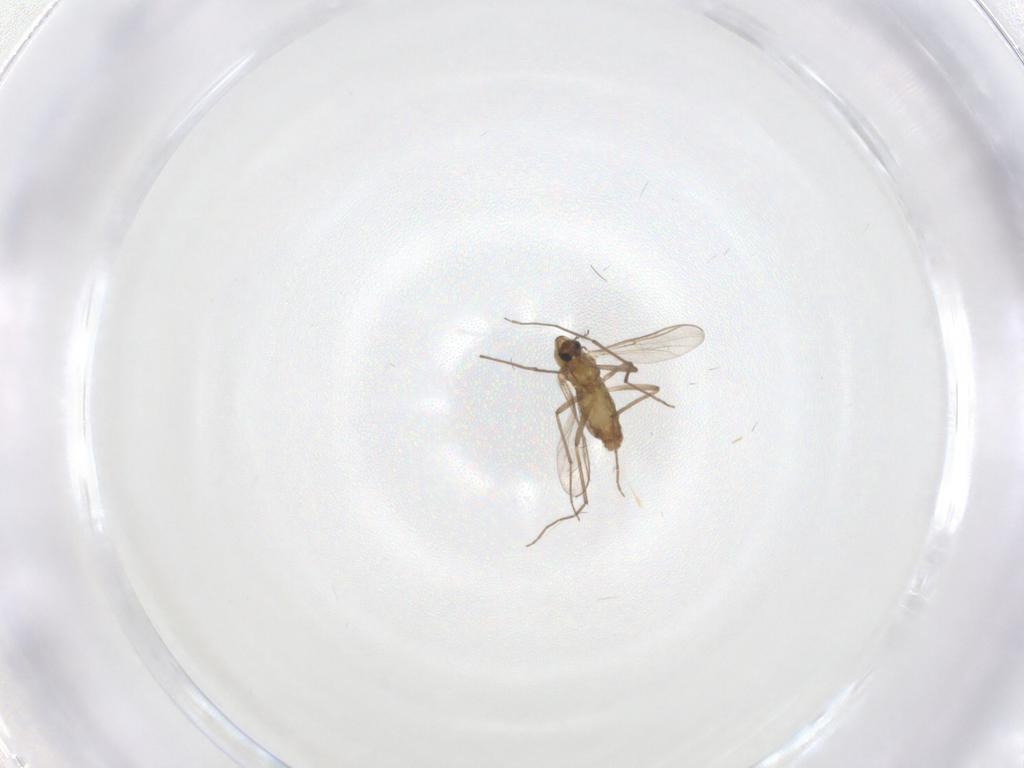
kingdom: Animalia
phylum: Arthropoda
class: Insecta
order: Diptera
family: Chironomidae
